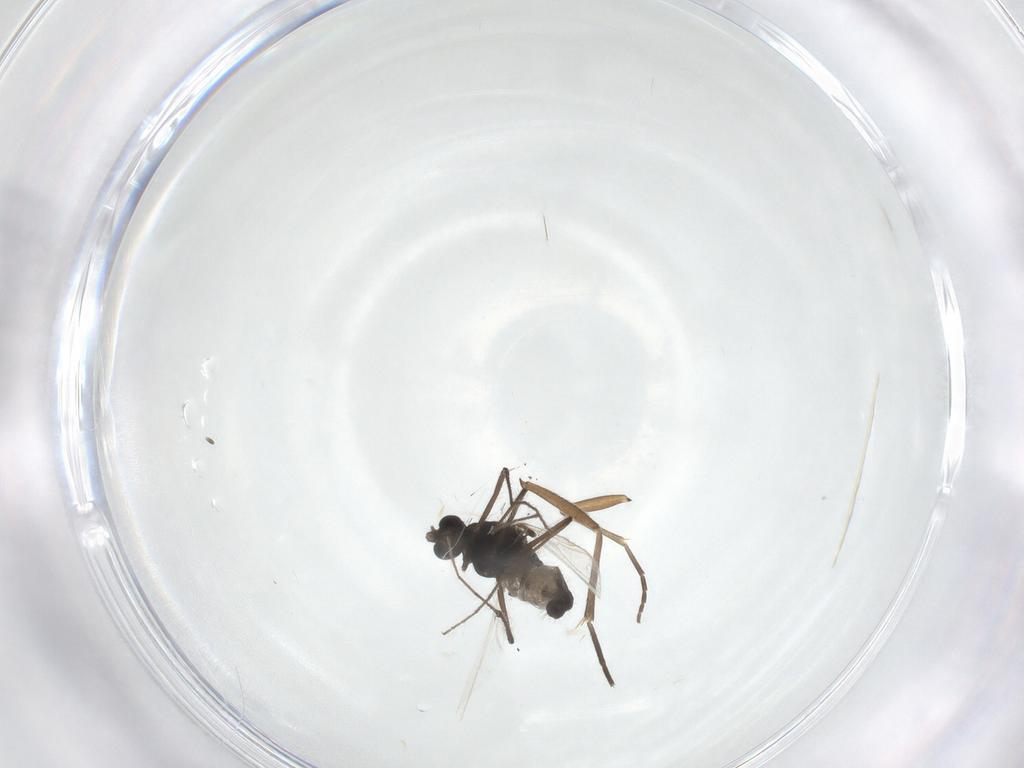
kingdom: Animalia
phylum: Arthropoda
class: Insecta
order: Diptera
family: Mycetophilidae
